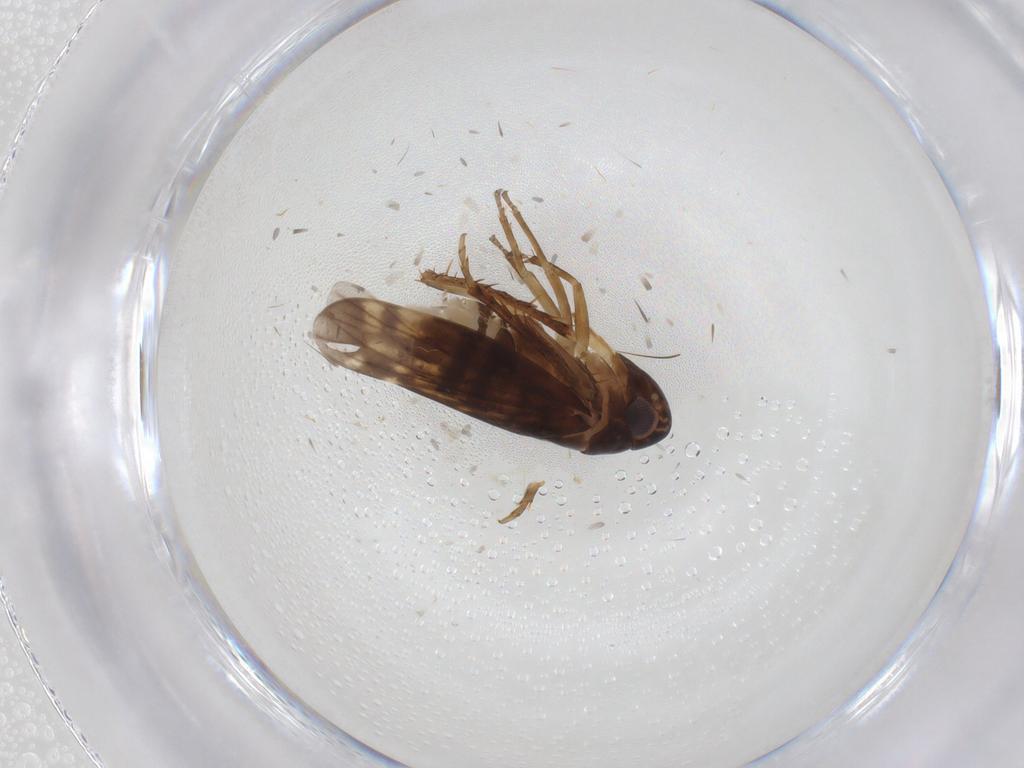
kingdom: Animalia
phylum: Arthropoda
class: Insecta
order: Hemiptera
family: Cicadellidae
